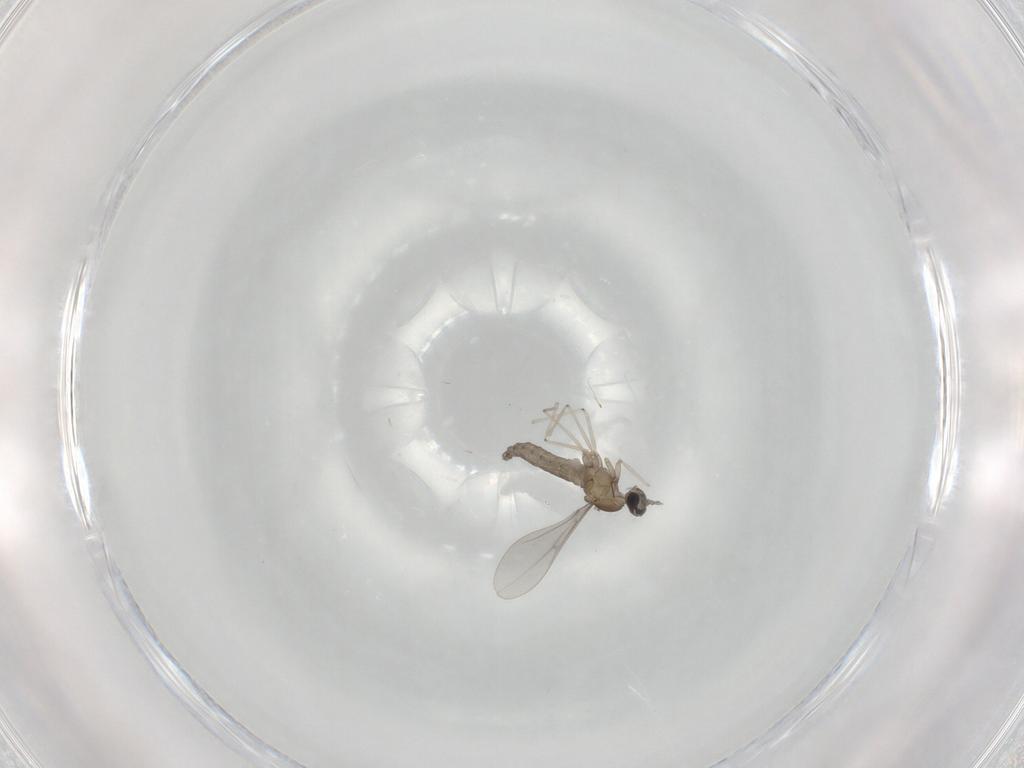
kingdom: Animalia
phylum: Arthropoda
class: Insecta
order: Diptera
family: Cecidomyiidae
